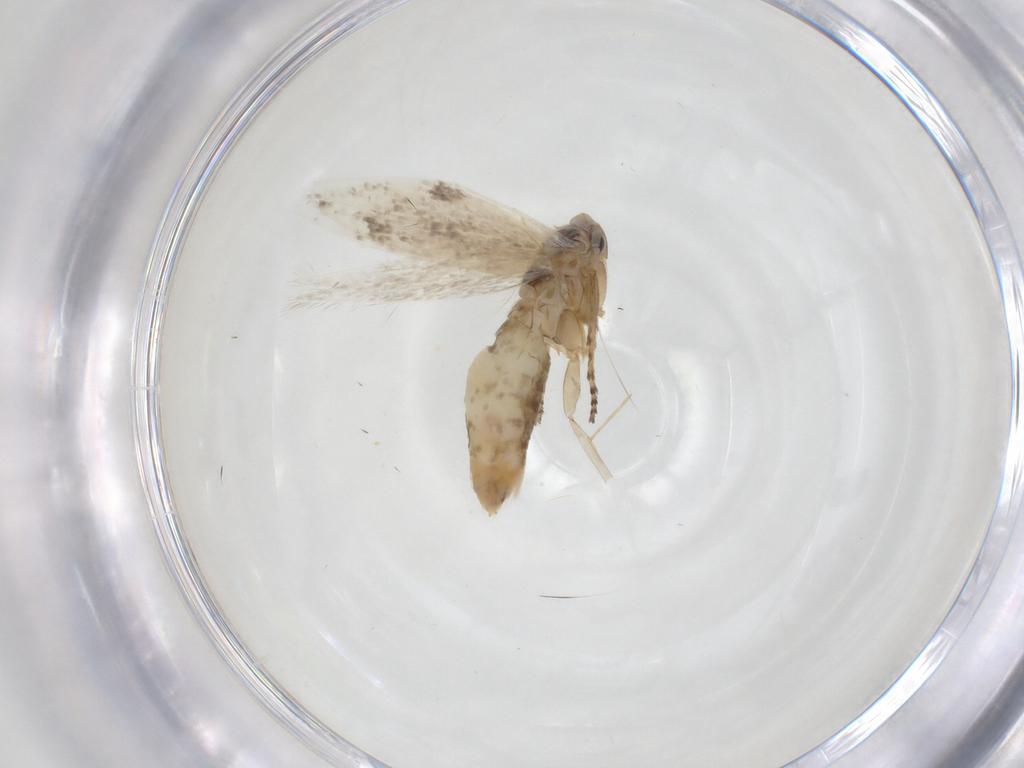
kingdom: Animalia
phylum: Arthropoda
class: Insecta
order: Lepidoptera
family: Bucculatricidae
